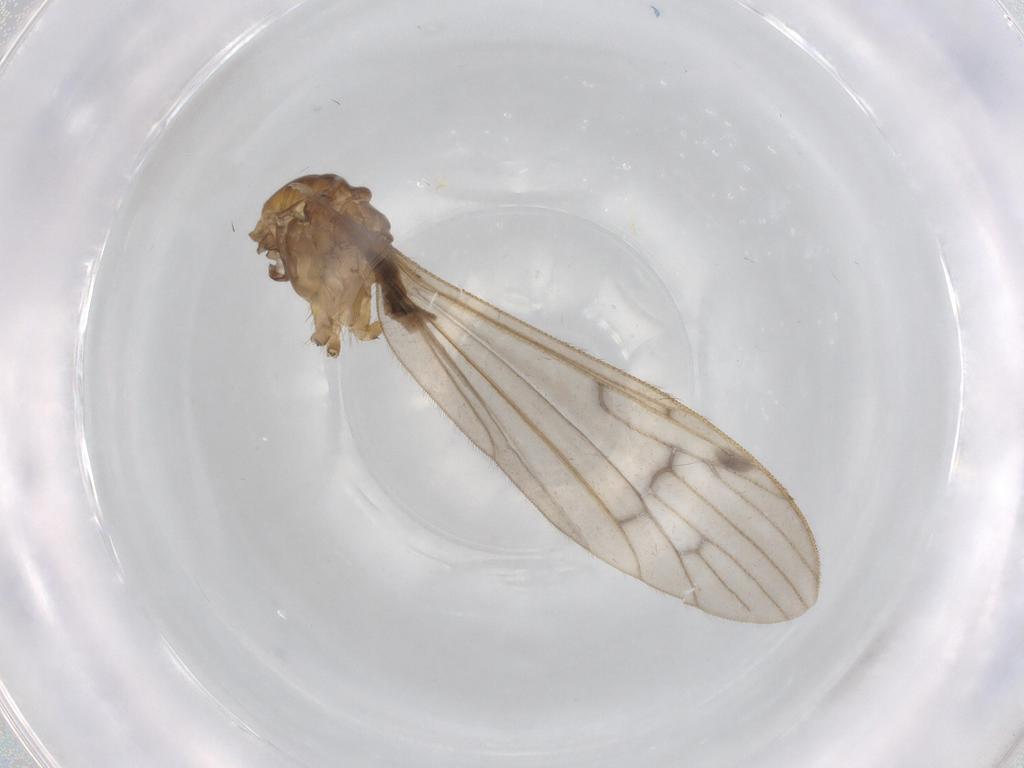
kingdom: Animalia
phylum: Arthropoda
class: Insecta
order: Diptera
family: Cecidomyiidae
